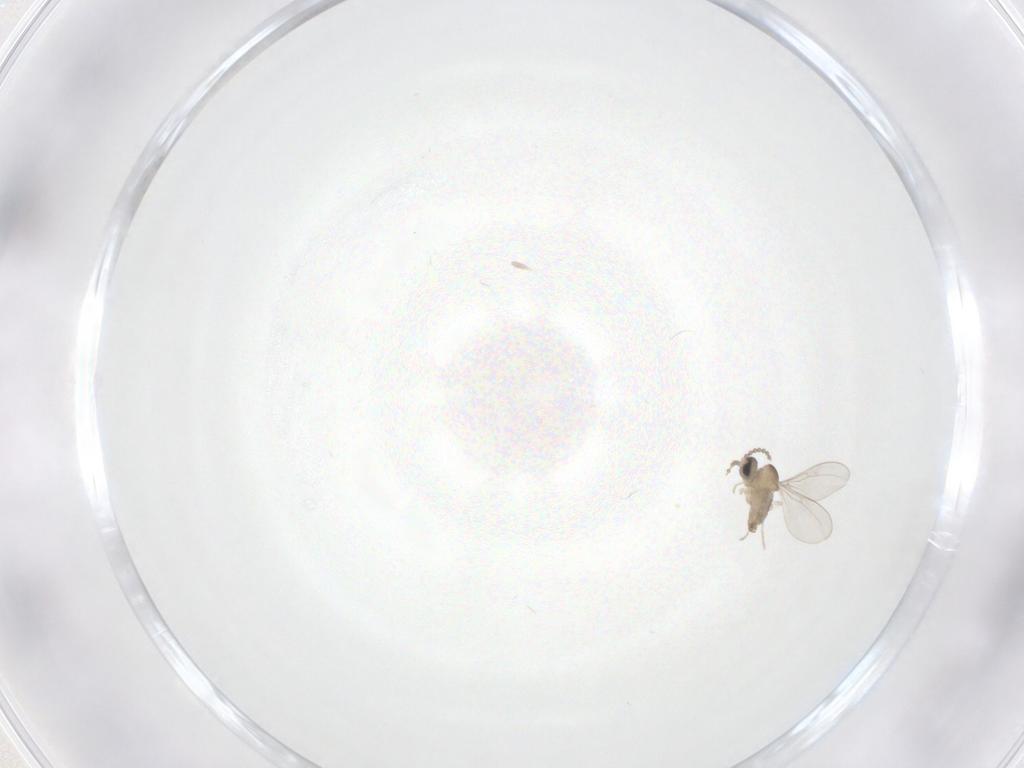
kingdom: Animalia
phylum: Arthropoda
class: Insecta
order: Diptera
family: Cecidomyiidae
